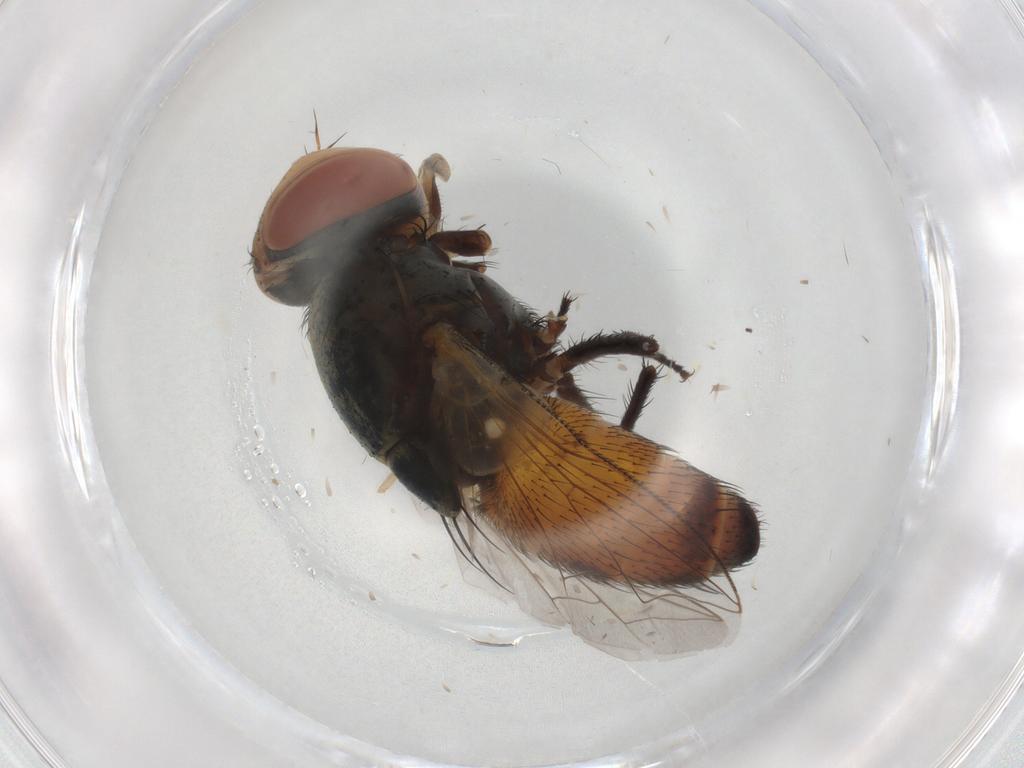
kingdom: Animalia
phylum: Arthropoda
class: Insecta
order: Diptera
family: Sarcophagidae
